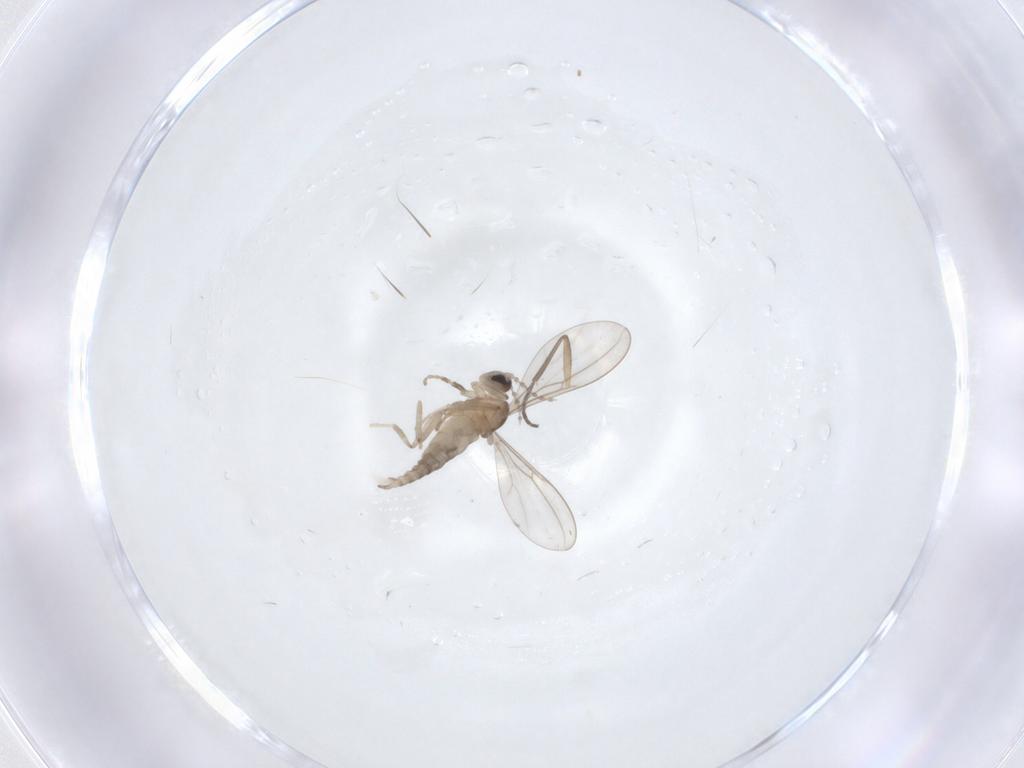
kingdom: Animalia
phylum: Arthropoda
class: Insecta
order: Diptera
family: Cecidomyiidae
